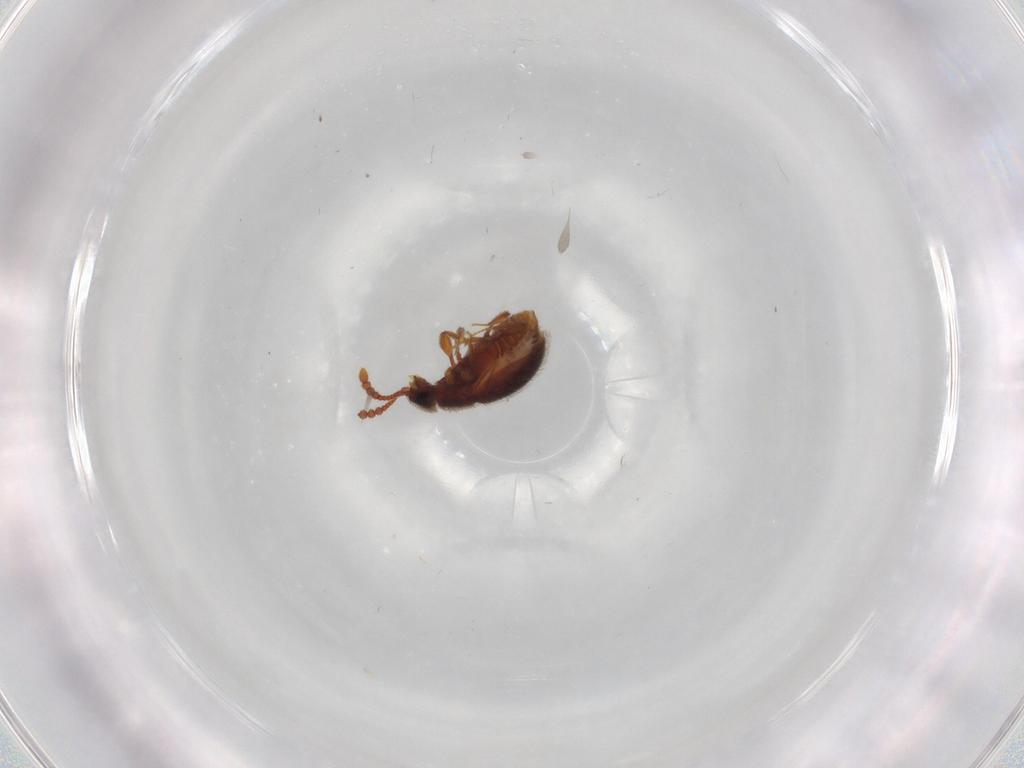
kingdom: Animalia
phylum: Arthropoda
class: Insecta
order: Coleoptera
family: Staphylinidae
